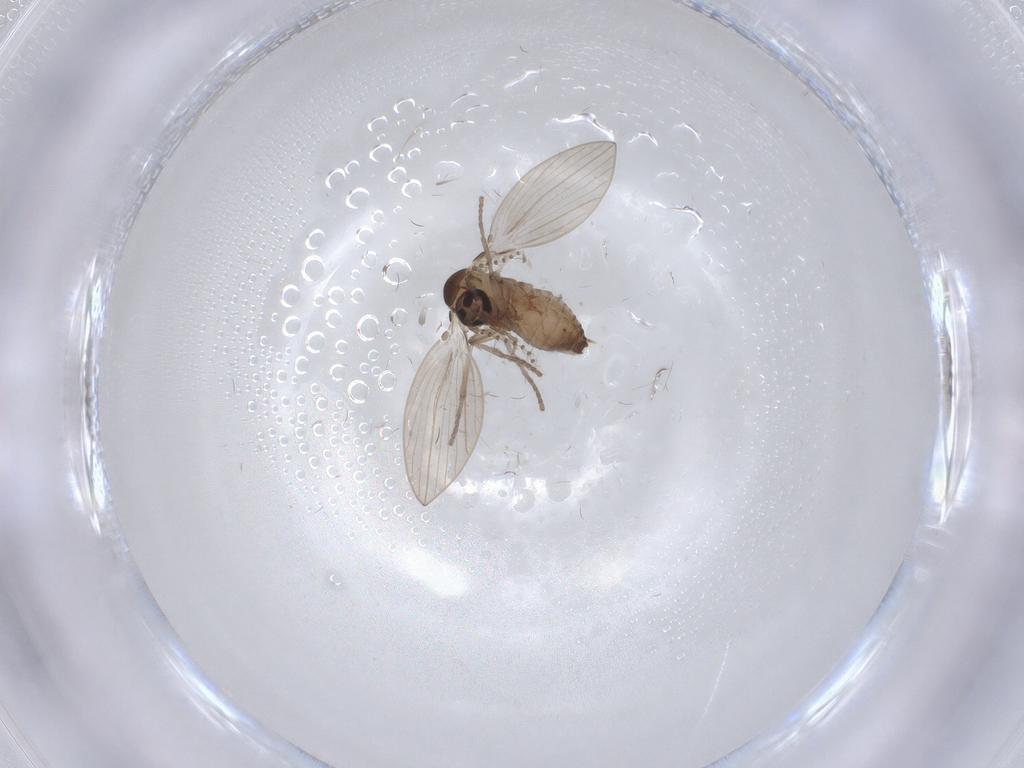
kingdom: Animalia
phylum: Arthropoda
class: Insecta
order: Diptera
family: Psychodidae
